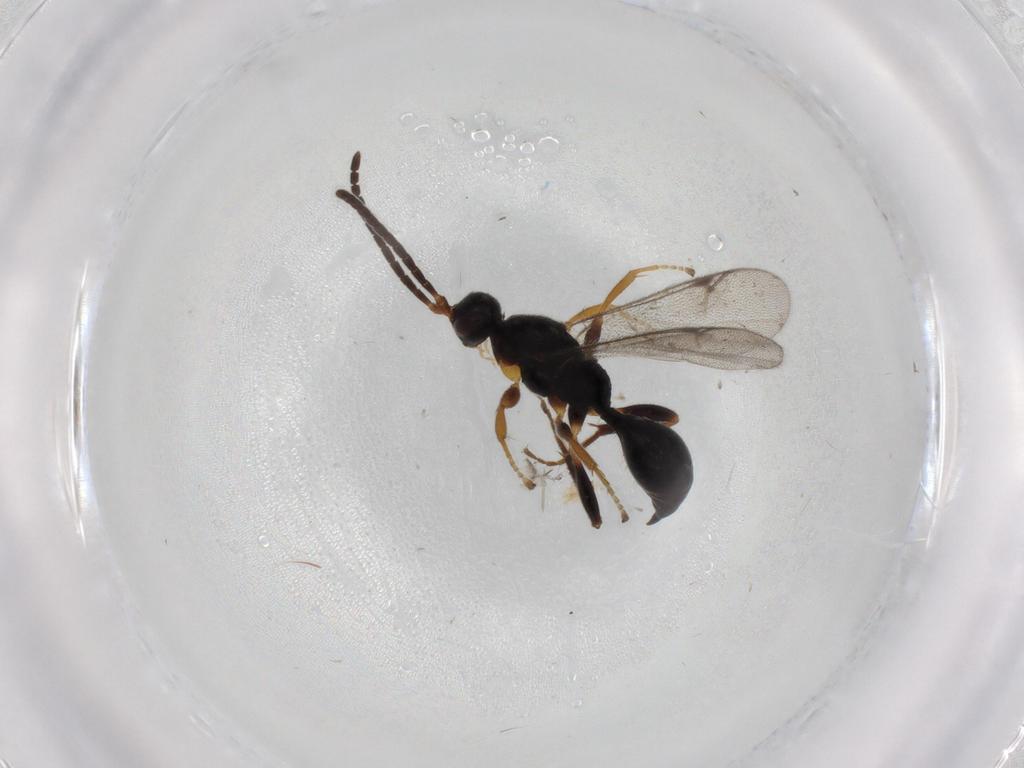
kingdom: Animalia
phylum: Arthropoda
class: Insecta
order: Hymenoptera
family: Proctotrupidae
